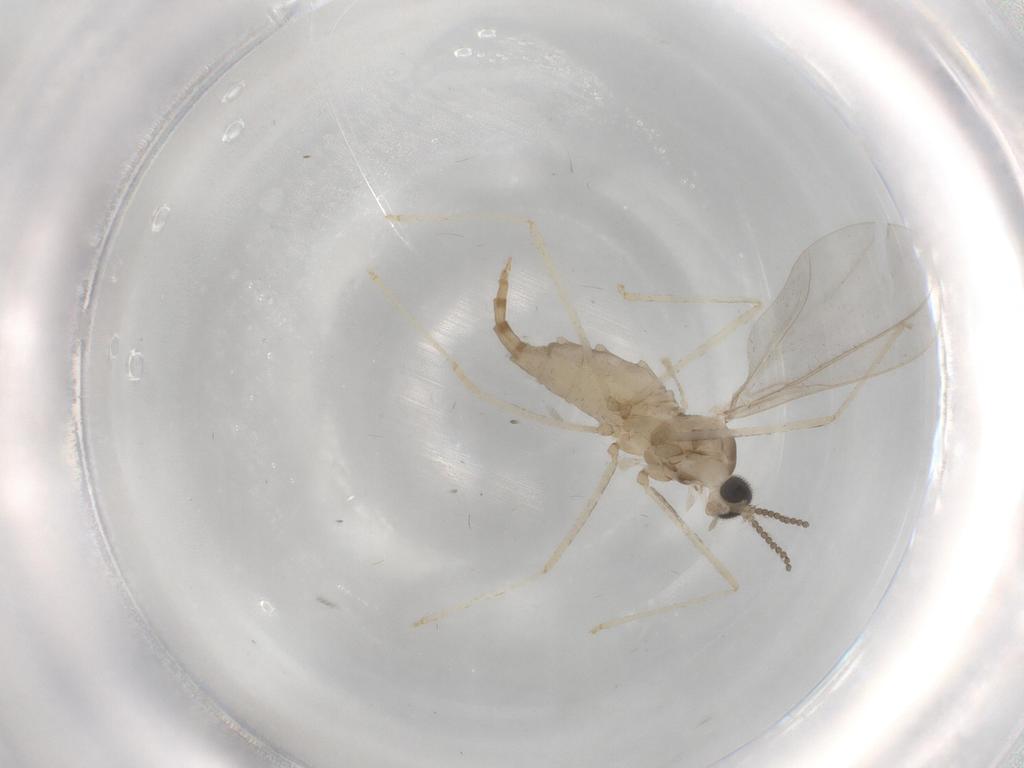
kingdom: Animalia
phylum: Arthropoda
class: Insecta
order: Diptera
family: Cecidomyiidae
